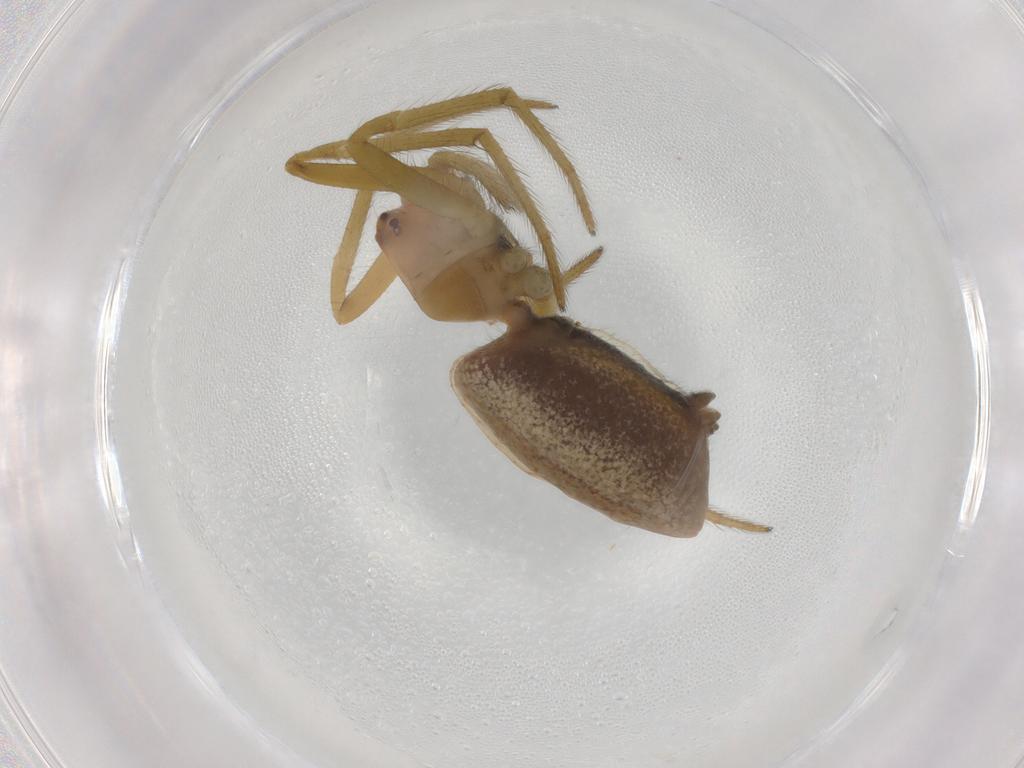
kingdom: Animalia
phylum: Arthropoda
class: Arachnida
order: Araneae
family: Araneidae
